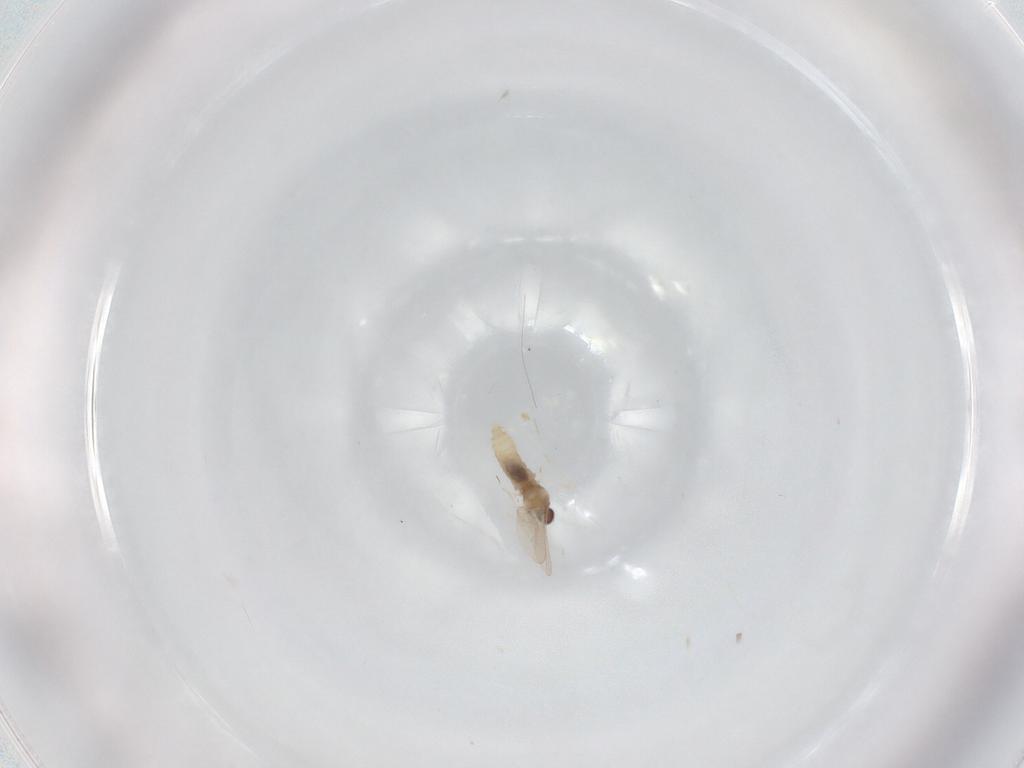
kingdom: Animalia
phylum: Arthropoda
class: Insecta
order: Diptera
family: Cecidomyiidae
